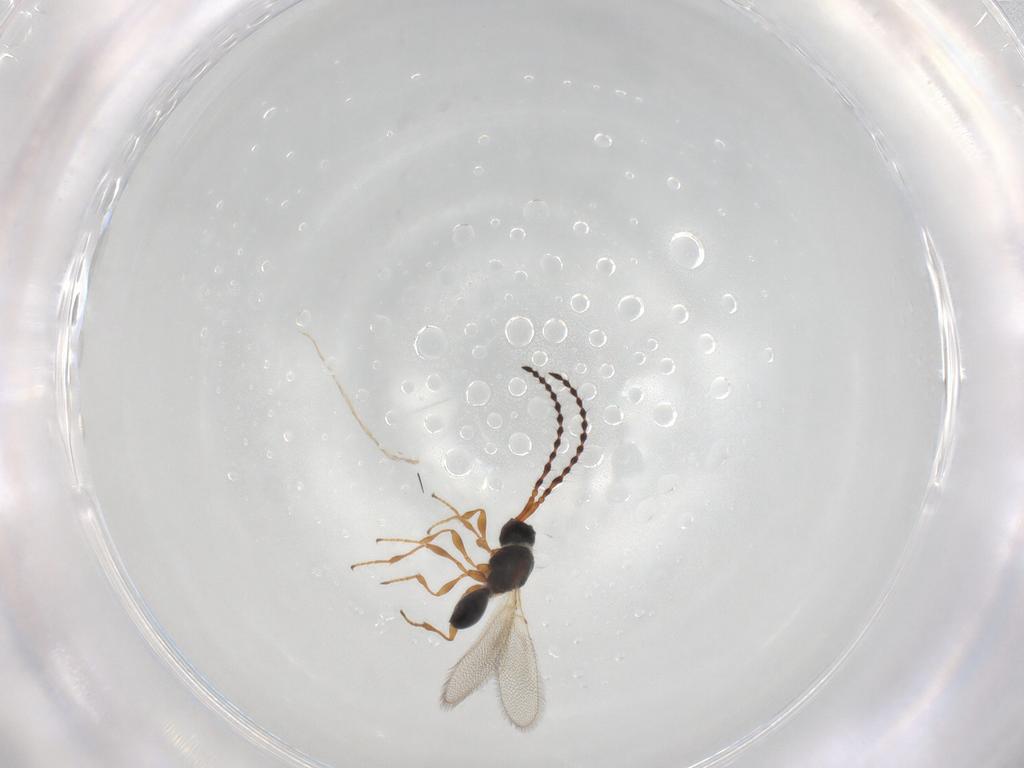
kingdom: Animalia
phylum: Arthropoda
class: Insecta
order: Hymenoptera
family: Diapriidae
